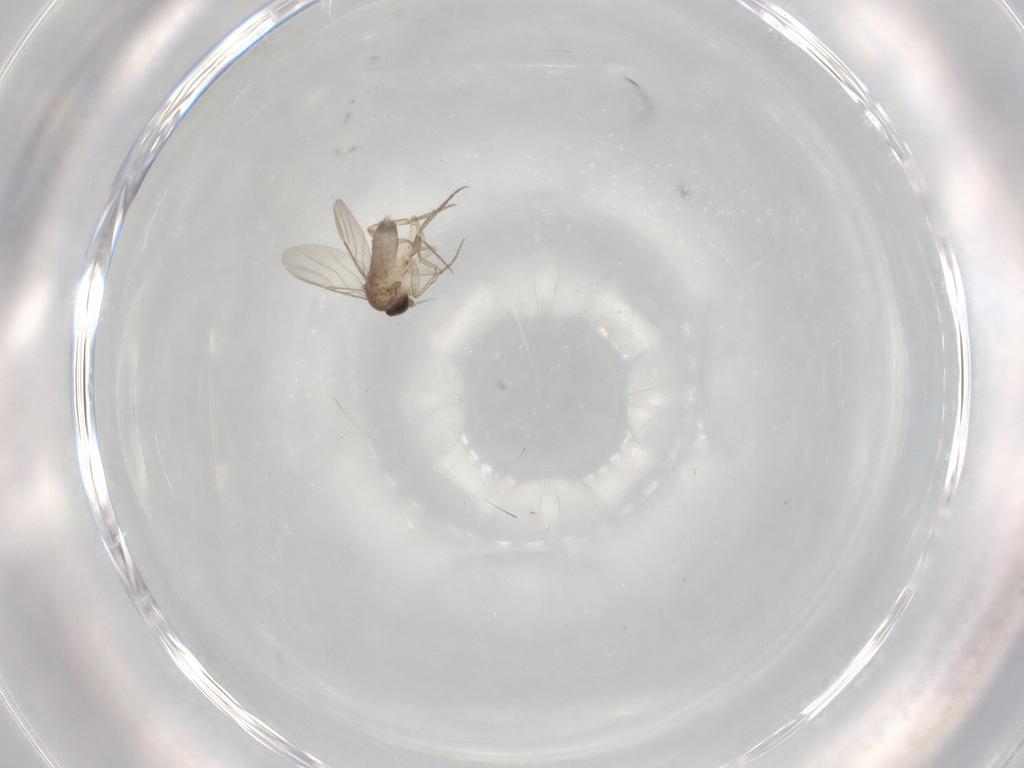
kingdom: Animalia
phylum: Arthropoda
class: Insecta
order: Diptera
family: Phoridae
